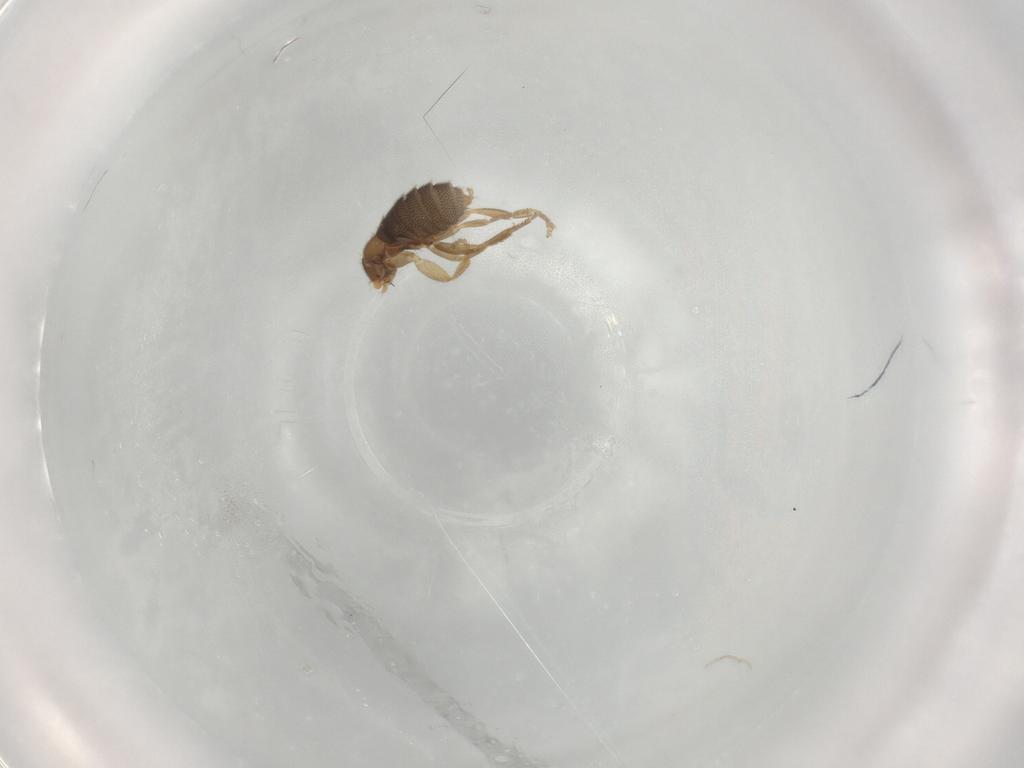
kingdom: Animalia
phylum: Arthropoda
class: Insecta
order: Diptera
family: Phoridae
